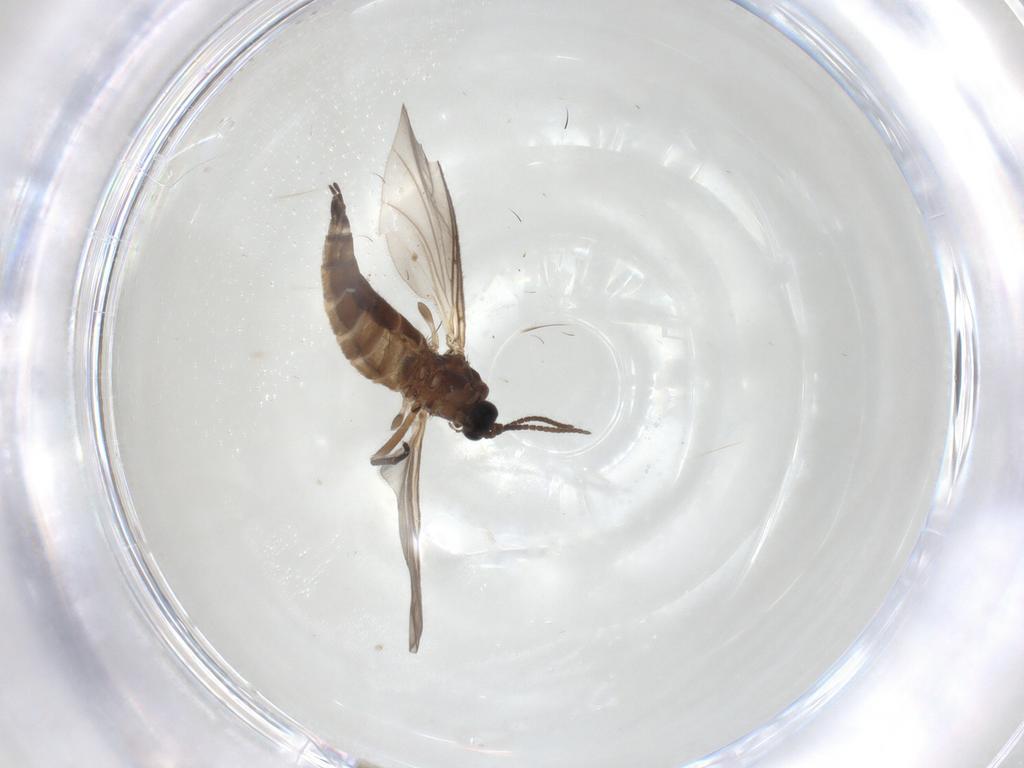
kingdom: Animalia
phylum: Arthropoda
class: Insecta
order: Diptera
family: Sciaridae
